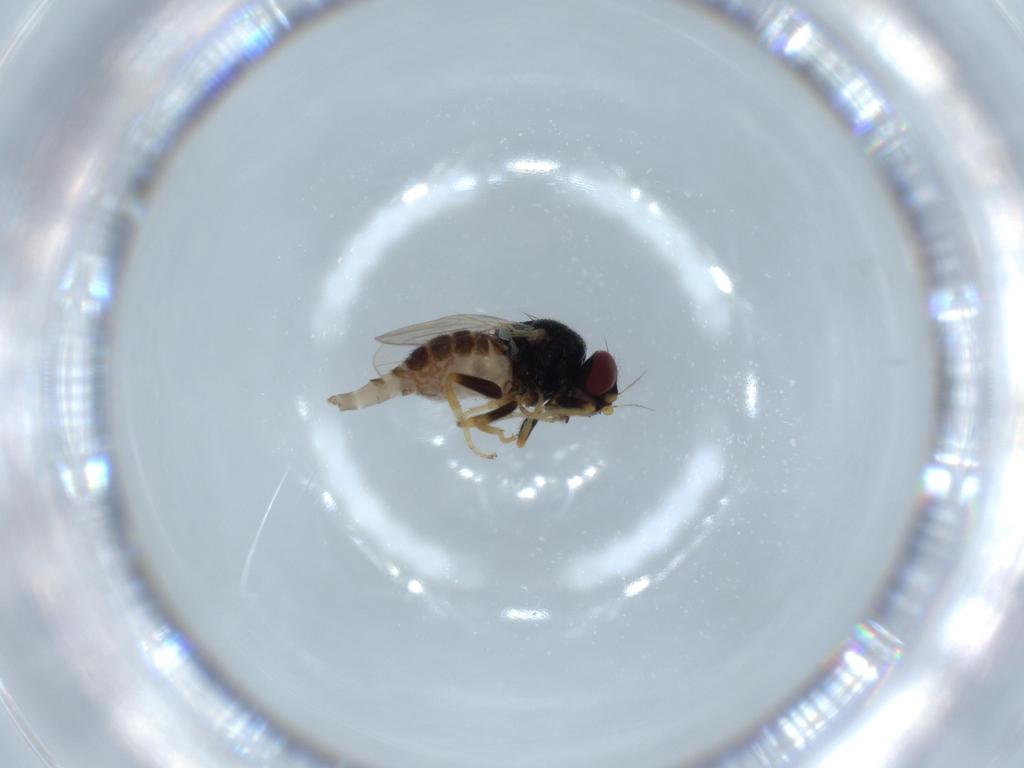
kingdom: Animalia
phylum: Arthropoda
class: Insecta
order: Diptera
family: Chloropidae
